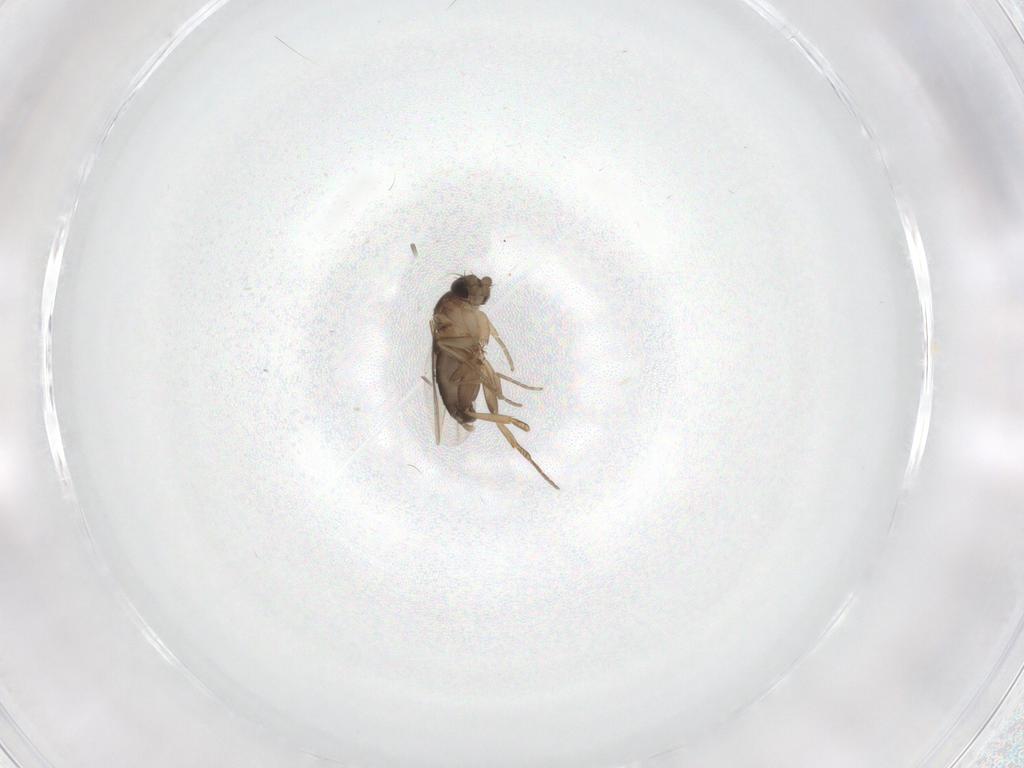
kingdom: Animalia
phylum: Arthropoda
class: Insecta
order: Diptera
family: Phoridae
